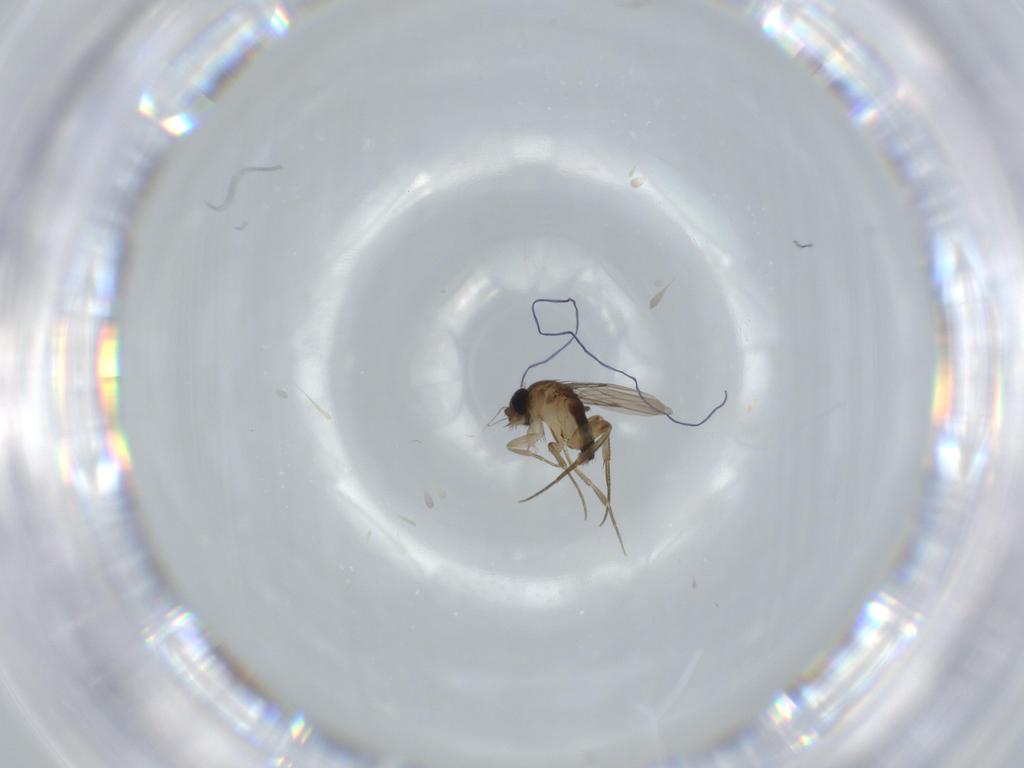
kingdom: Animalia
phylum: Arthropoda
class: Insecta
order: Diptera
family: Phoridae
